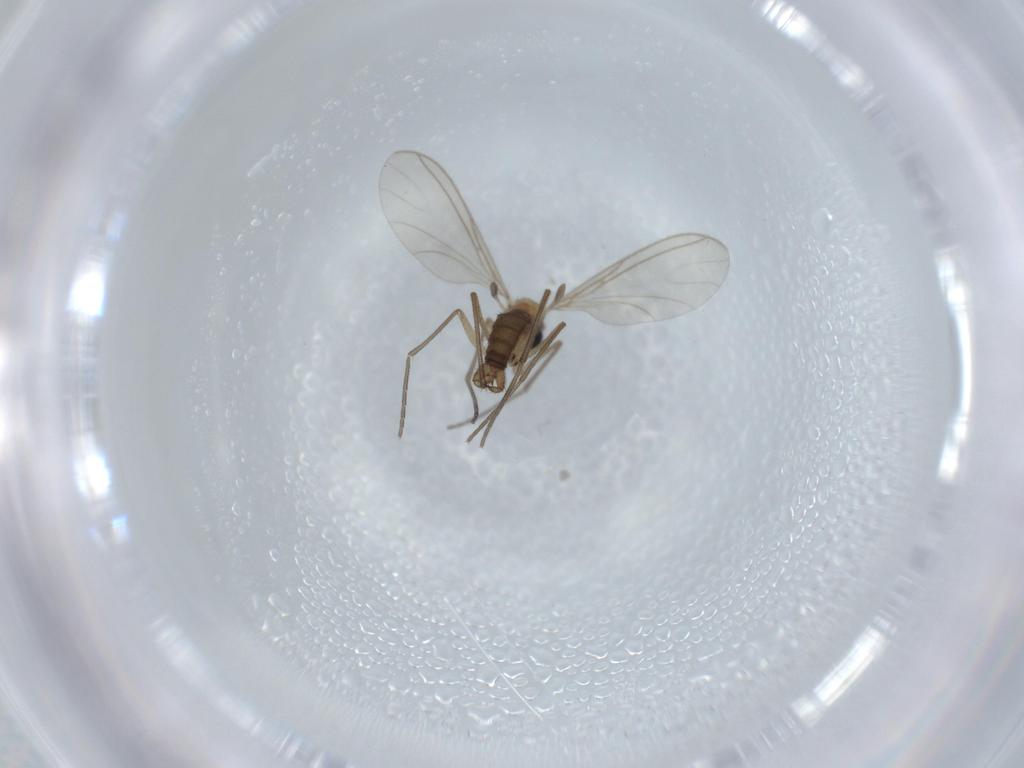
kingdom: Animalia
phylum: Arthropoda
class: Insecta
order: Diptera
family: Sciaridae
